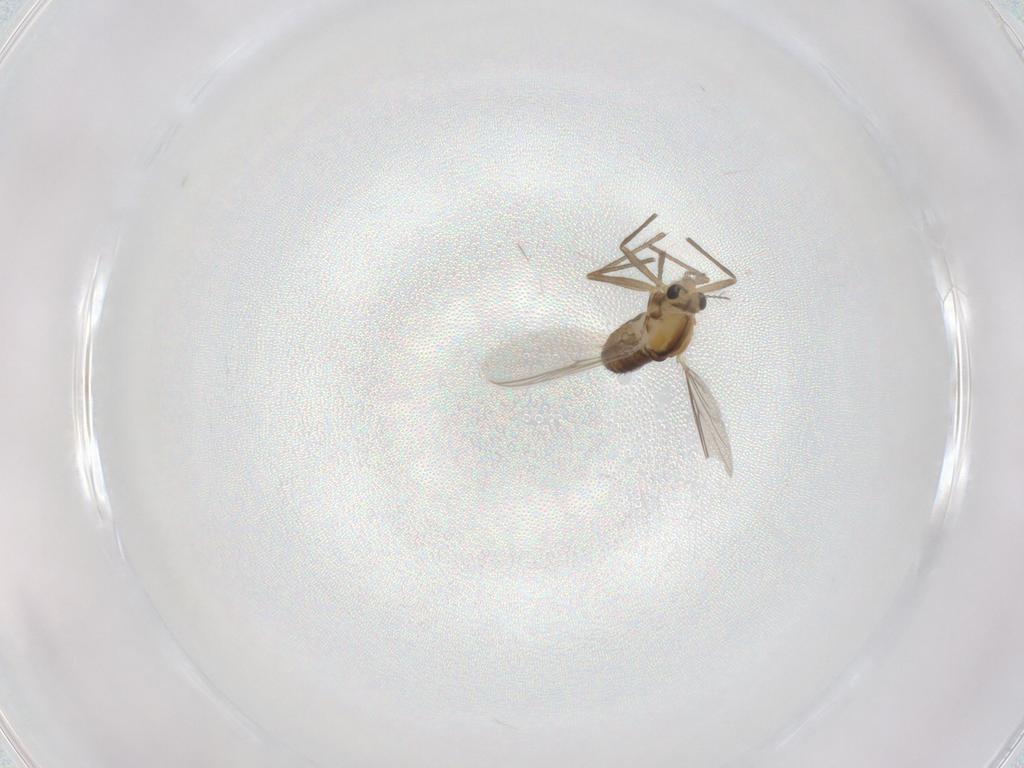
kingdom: Animalia
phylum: Arthropoda
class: Insecta
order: Diptera
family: Chironomidae
